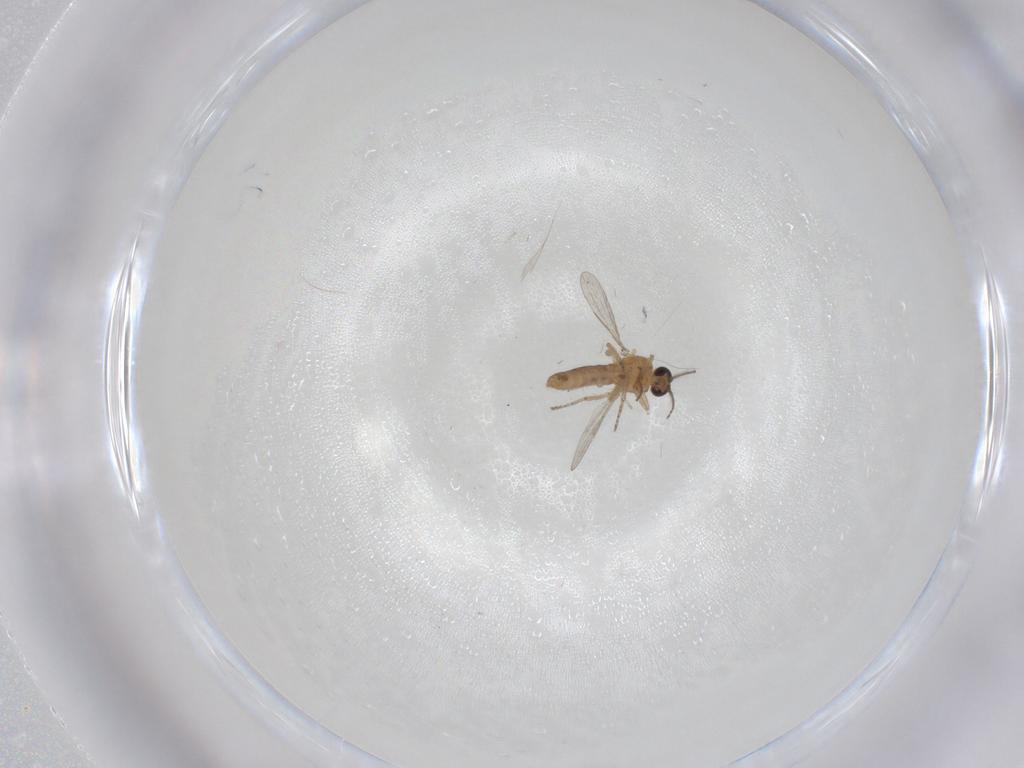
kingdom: Animalia
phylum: Arthropoda
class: Insecta
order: Diptera
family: Ceratopogonidae
